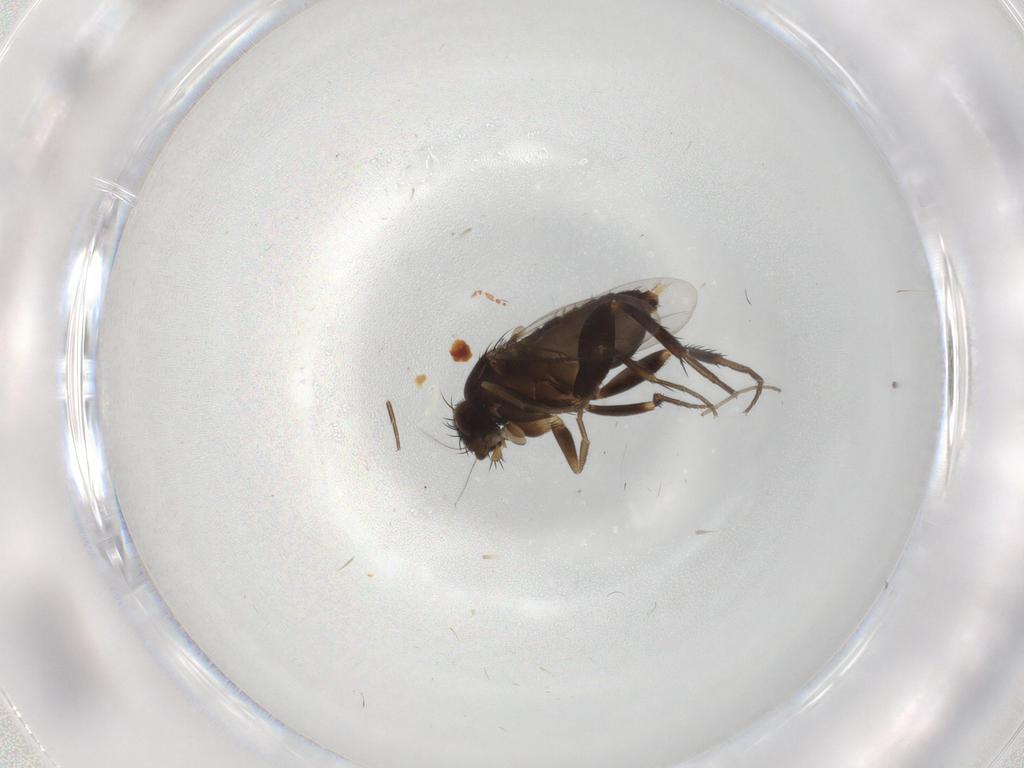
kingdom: Animalia
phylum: Arthropoda
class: Insecta
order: Diptera
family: Phoridae
